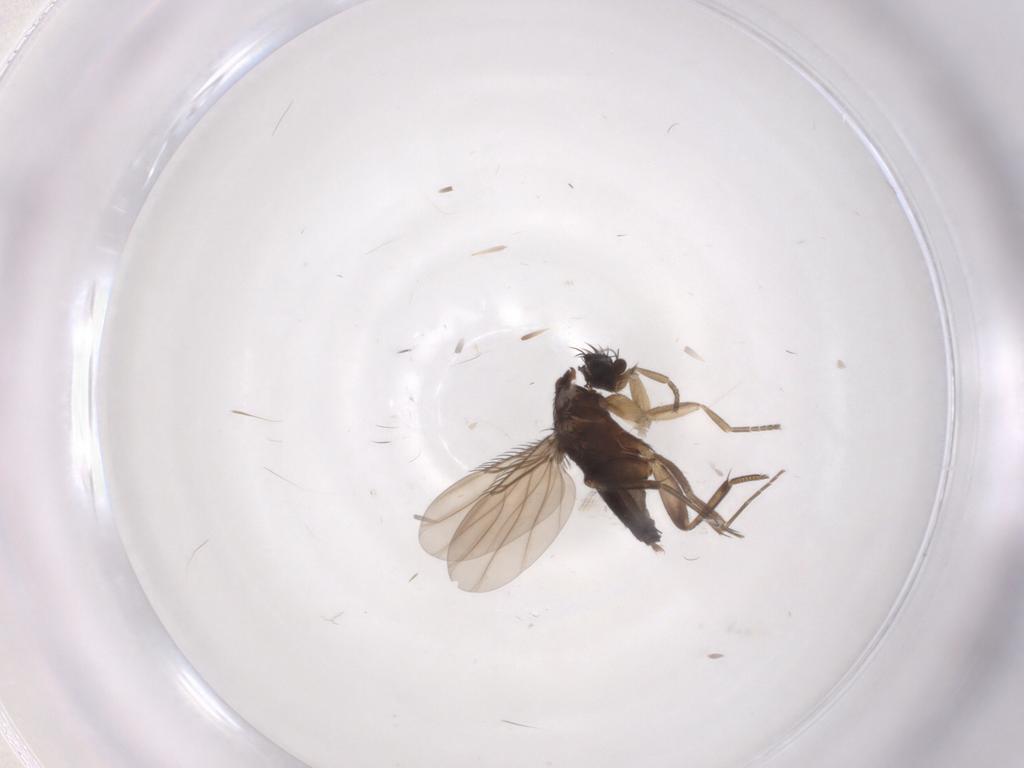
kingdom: Animalia
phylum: Arthropoda
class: Insecta
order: Diptera
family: Phoridae
